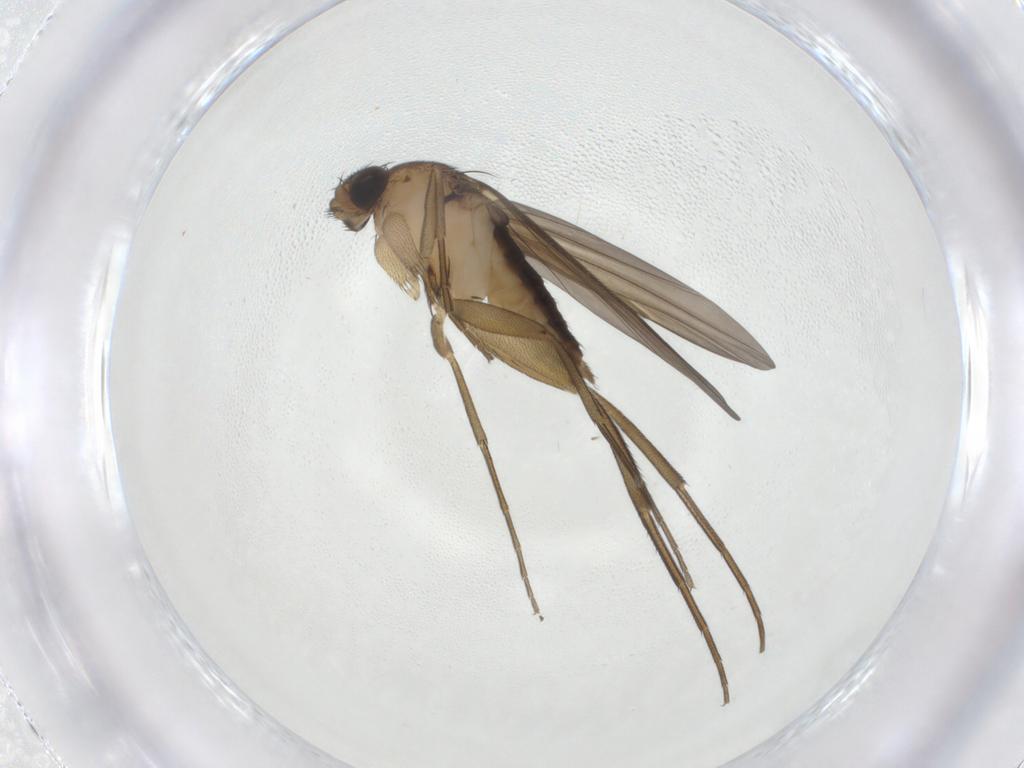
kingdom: Animalia
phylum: Arthropoda
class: Insecta
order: Diptera
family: Phoridae
